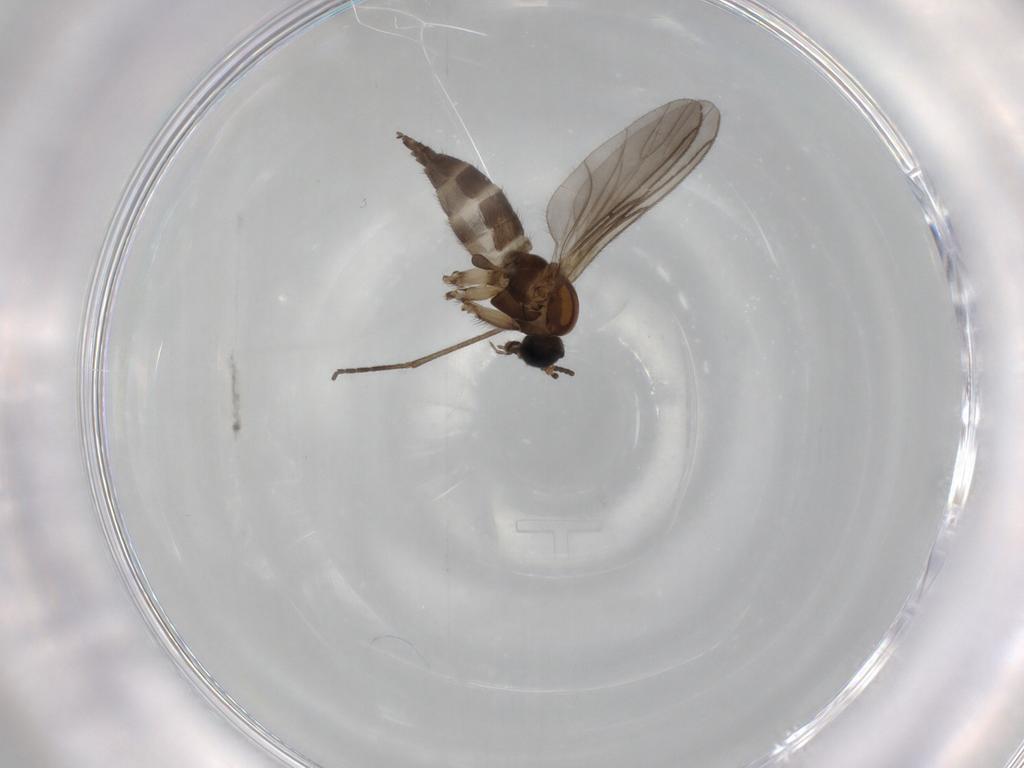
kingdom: Animalia
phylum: Arthropoda
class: Insecta
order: Diptera
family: Sciaridae
